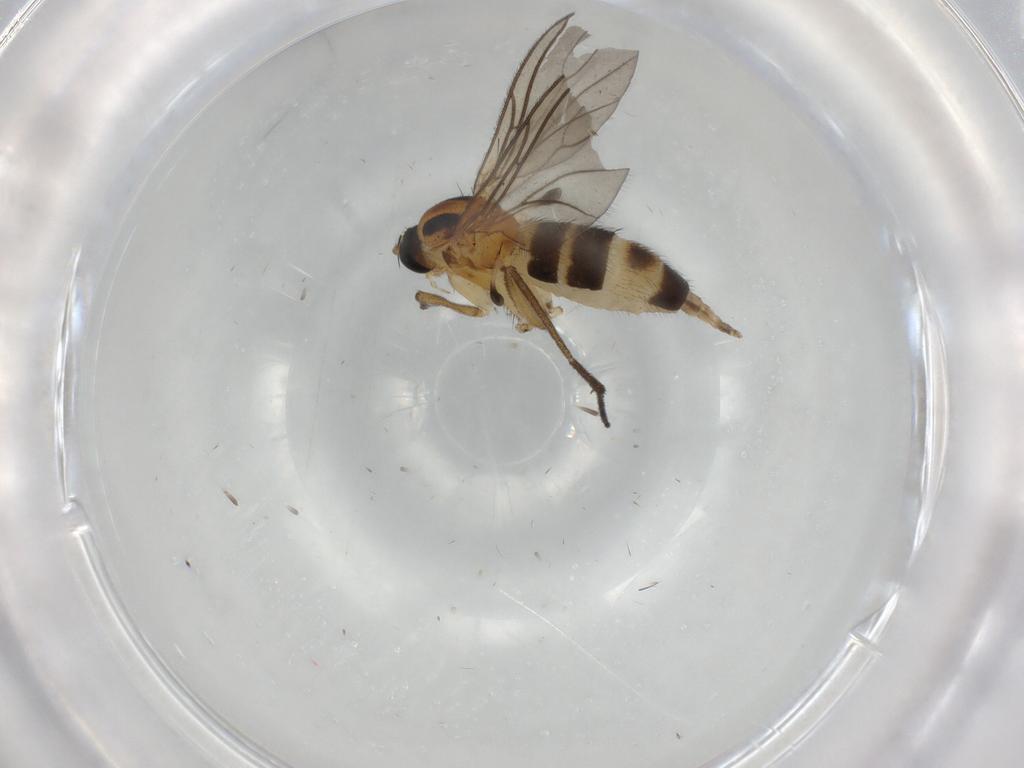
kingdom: Animalia
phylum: Arthropoda
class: Insecta
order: Diptera
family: Sciaridae
